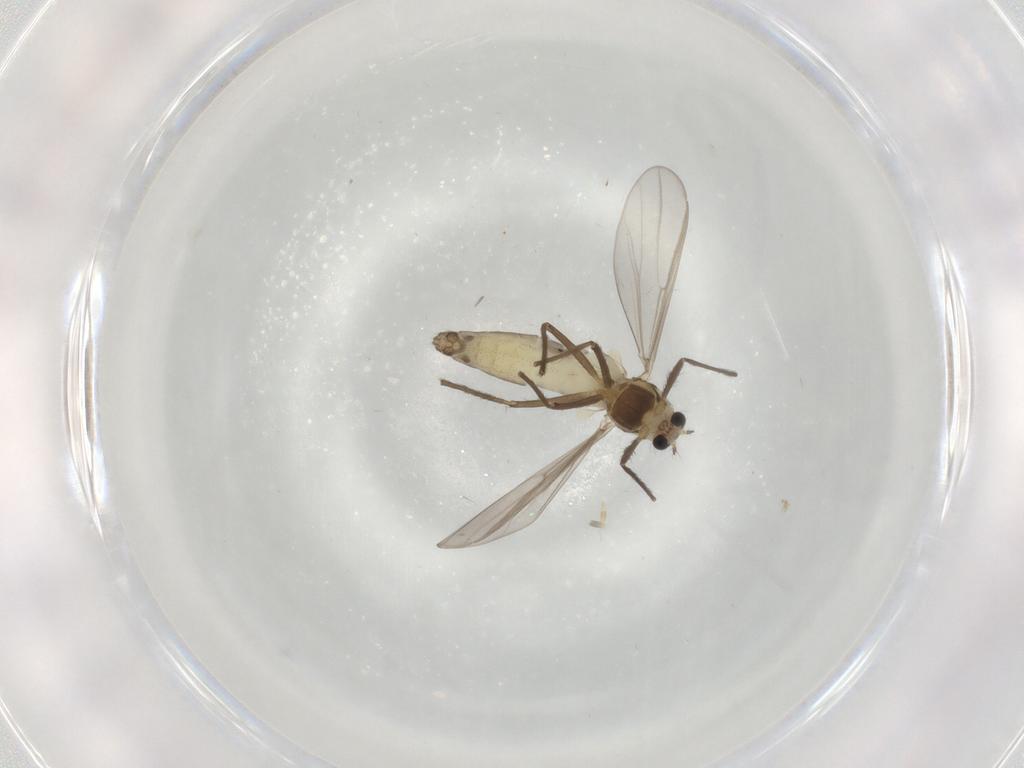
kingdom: Animalia
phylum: Arthropoda
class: Insecta
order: Diptera
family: Chironomidae
